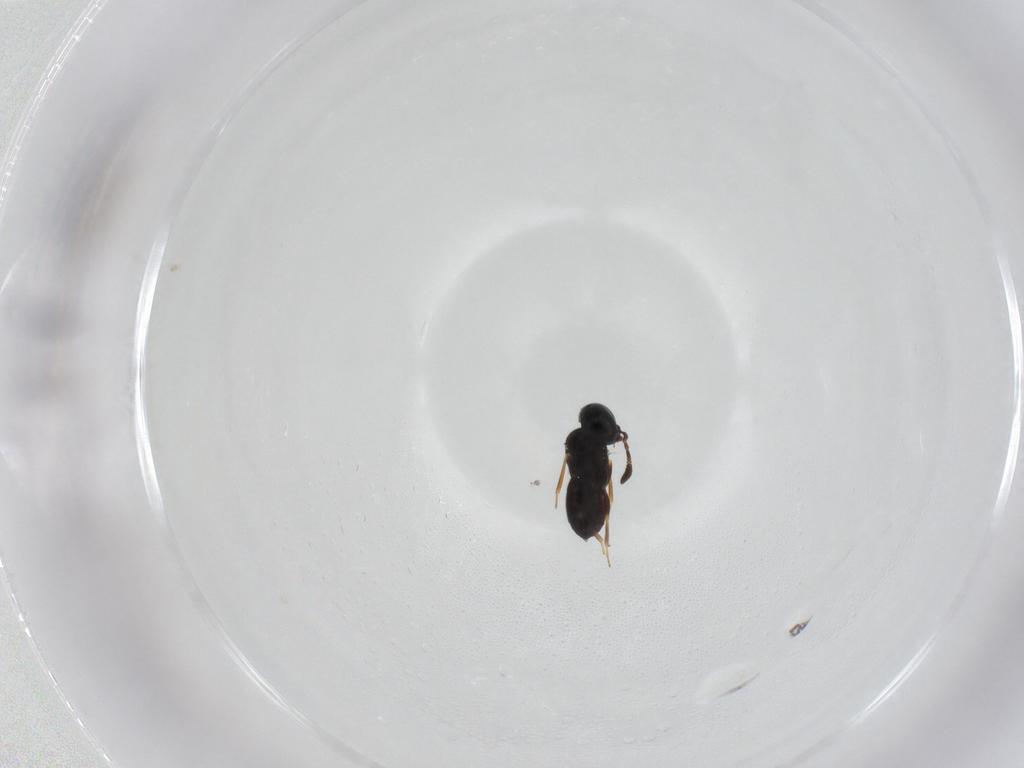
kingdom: Animalia
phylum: Arthropoda
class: Insecta
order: Hymenoptera
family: Scelionidae
